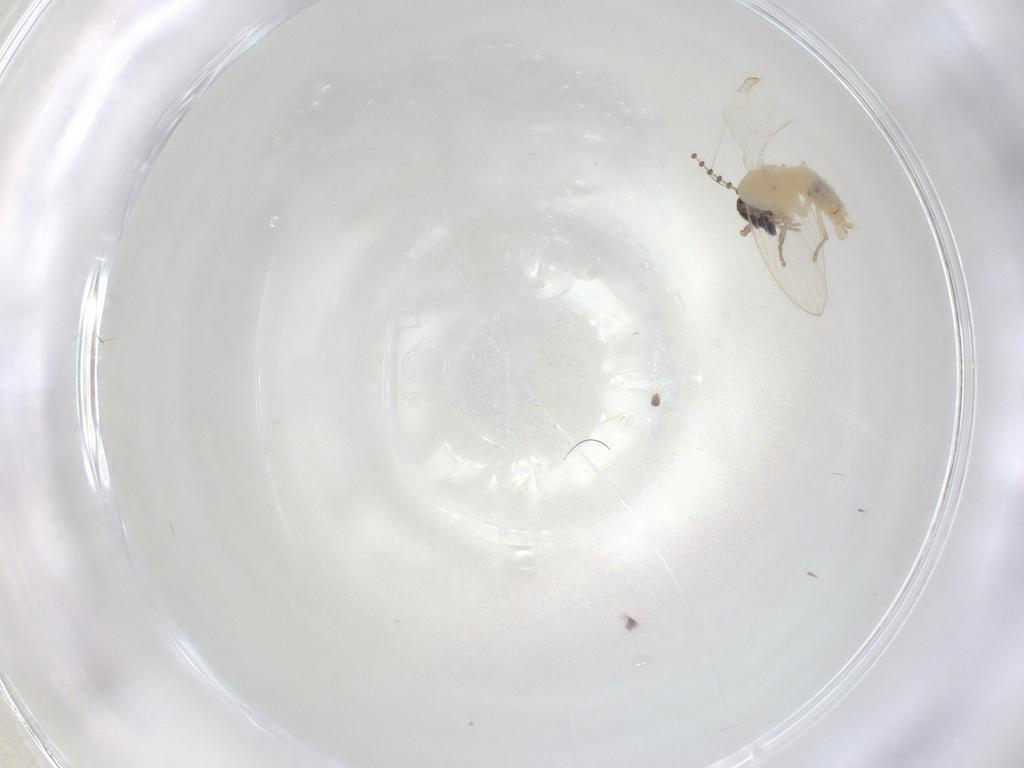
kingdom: Animalia
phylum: Arthropoda
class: Insecta
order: Diptera
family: Psychodidae
